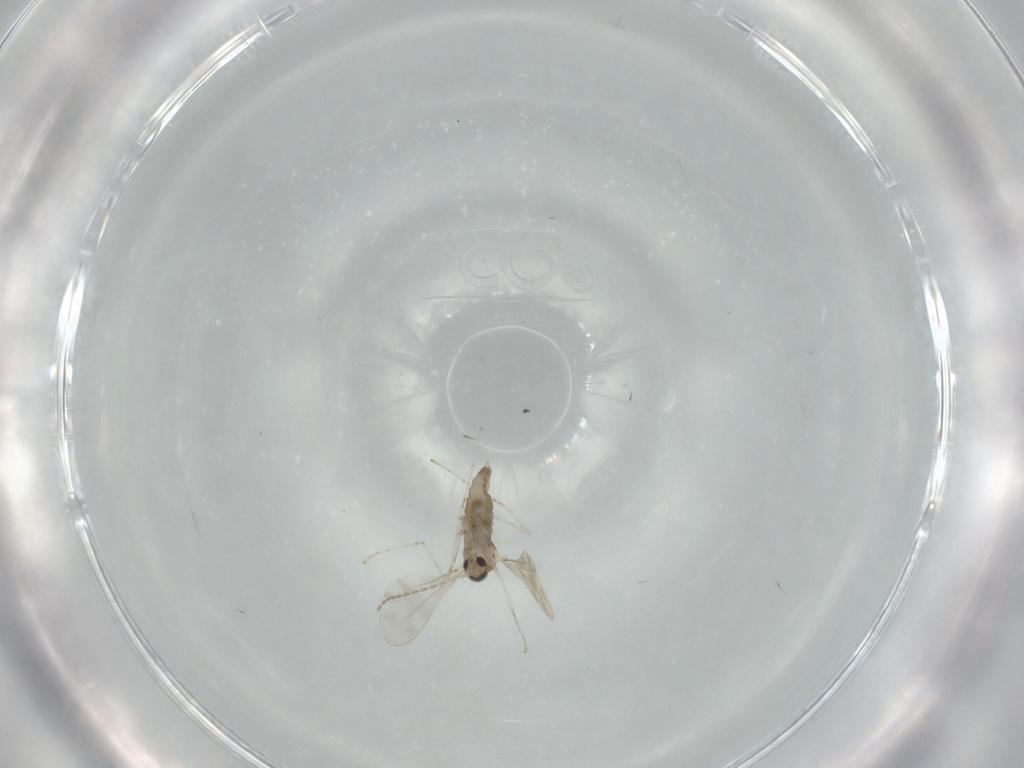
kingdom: Animalia
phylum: Arthropoda
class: Insecta
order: Diptera
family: Cecidomyiidae
